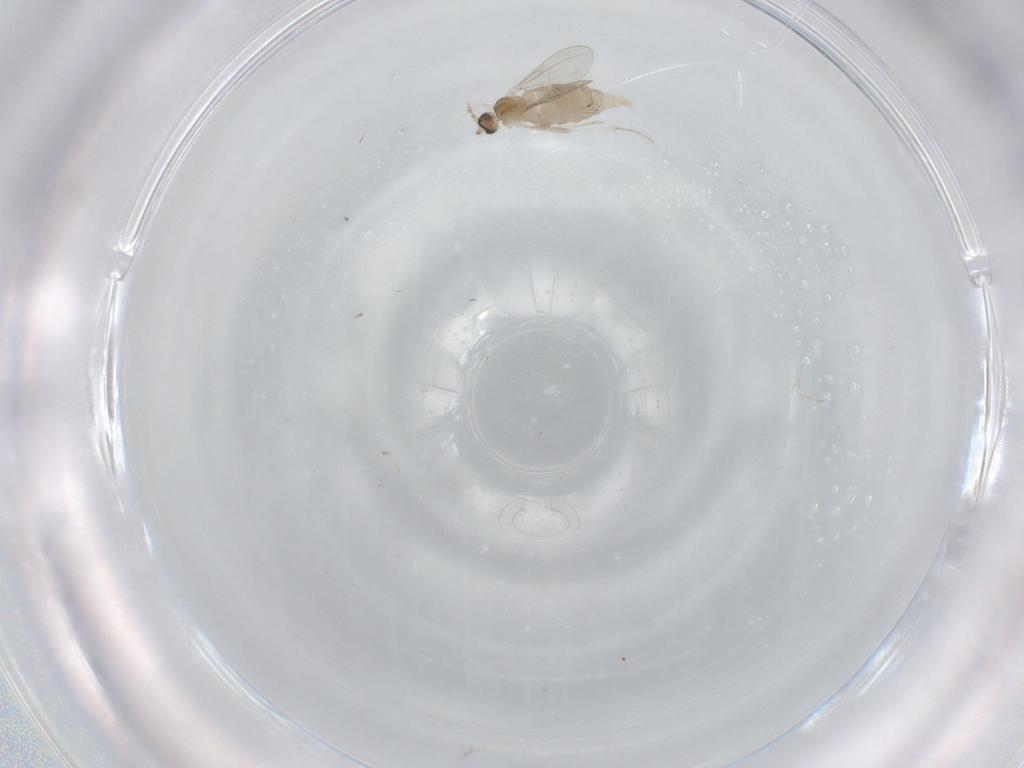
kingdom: Animalia
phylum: Arthropoda
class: Insecta
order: Diptera
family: Cecidomyiidae
